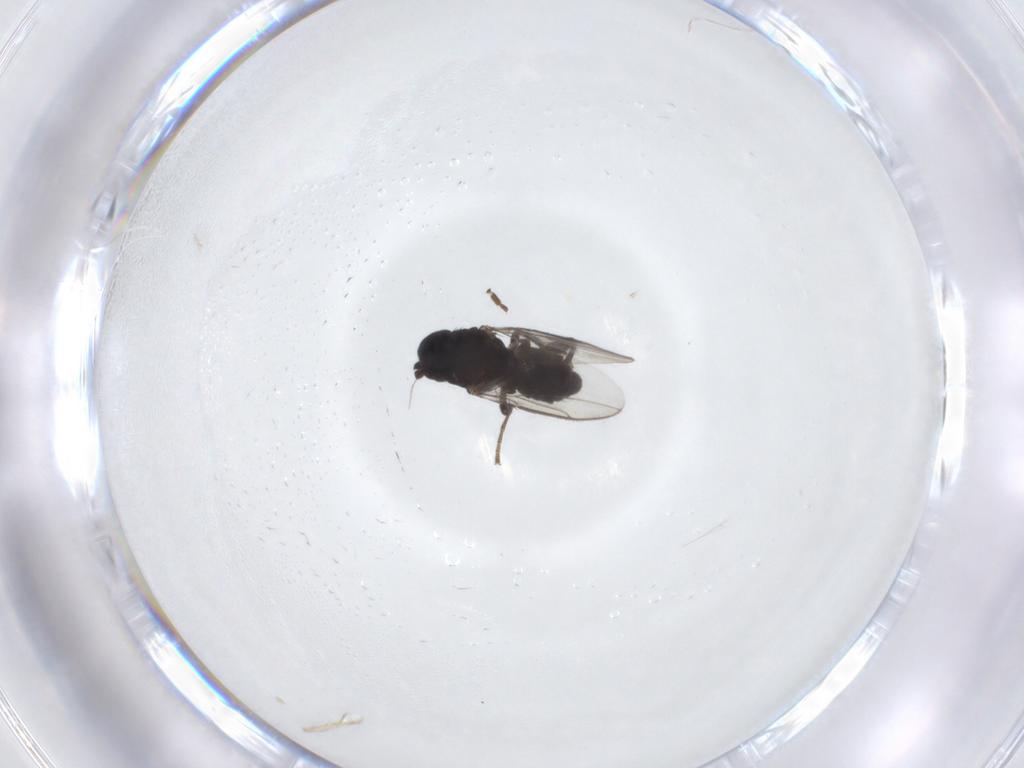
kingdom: Animalia
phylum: Arthropoda
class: Insecta
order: Diptera
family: Chironomidae
